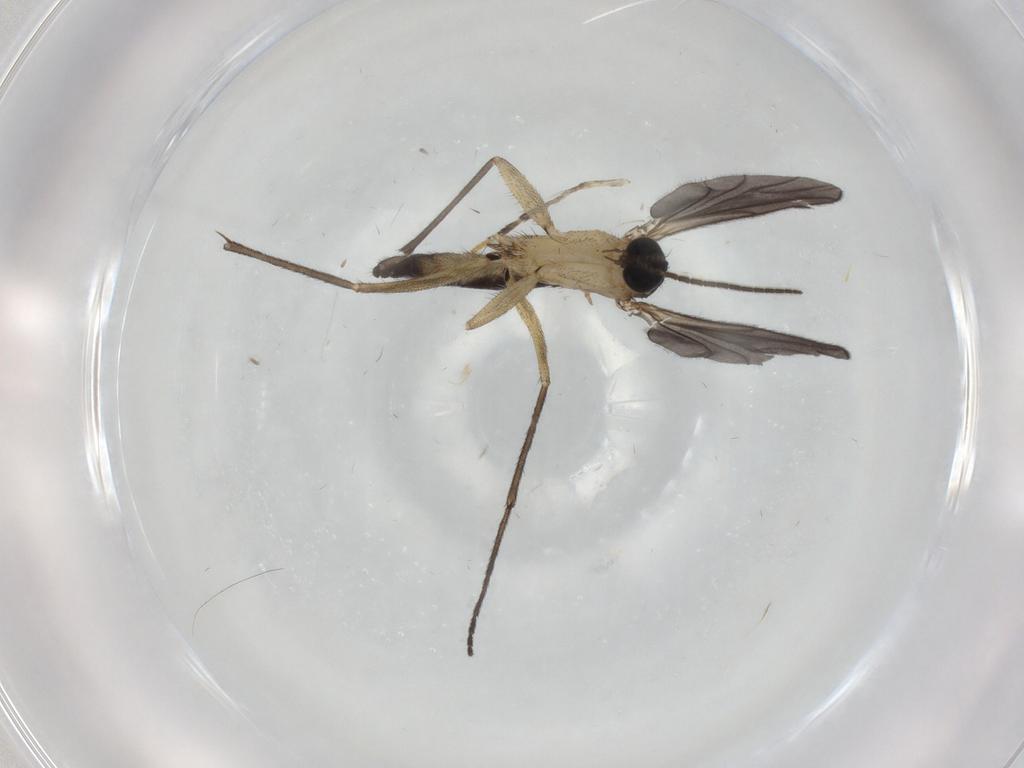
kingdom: Animalia
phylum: Arthropoda
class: Insecta
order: Diptera
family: Sciaridae
